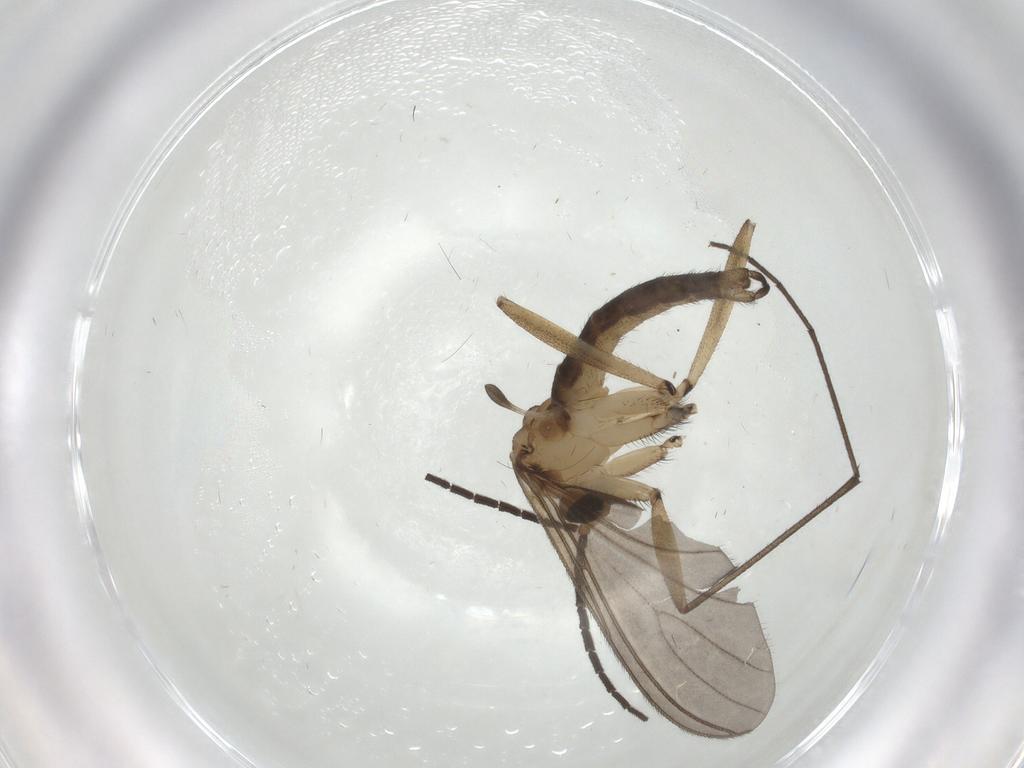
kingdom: Animalia
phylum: Arthropoda
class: Insecta
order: Diptera
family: Sciaridae
